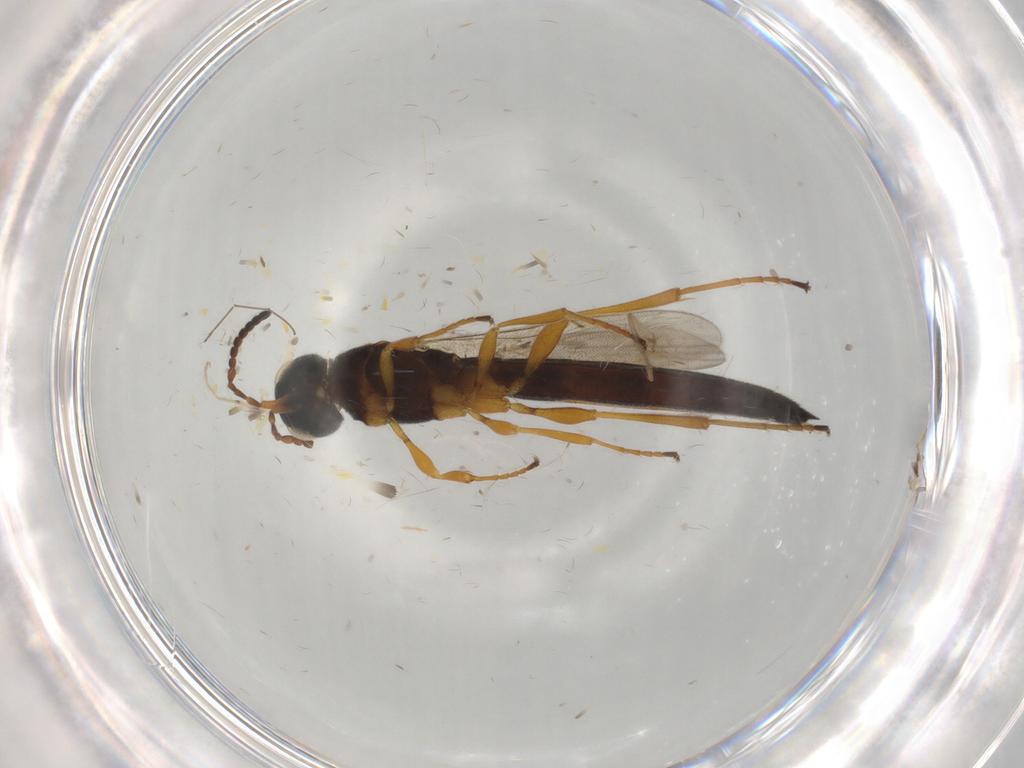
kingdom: Animalia
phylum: Arthropoda
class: Insecta
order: Hymenoptera
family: Scelionidae
